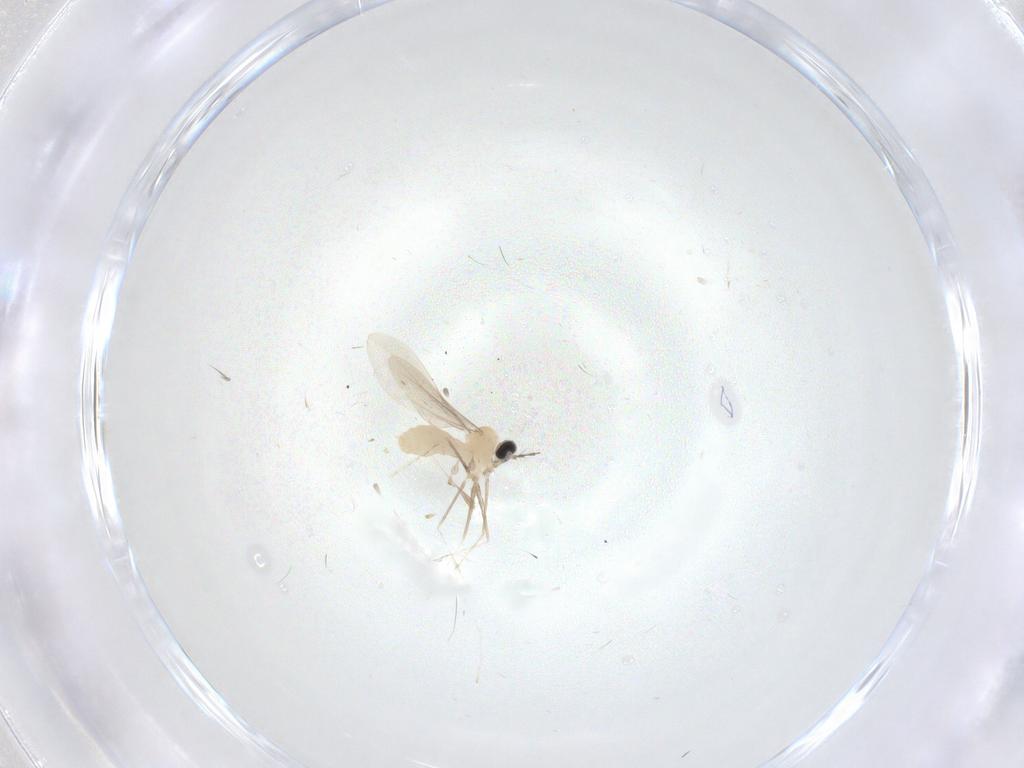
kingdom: Animalia
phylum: Arthropoda
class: Insecta
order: Diptera
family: Cecidomyiidae
